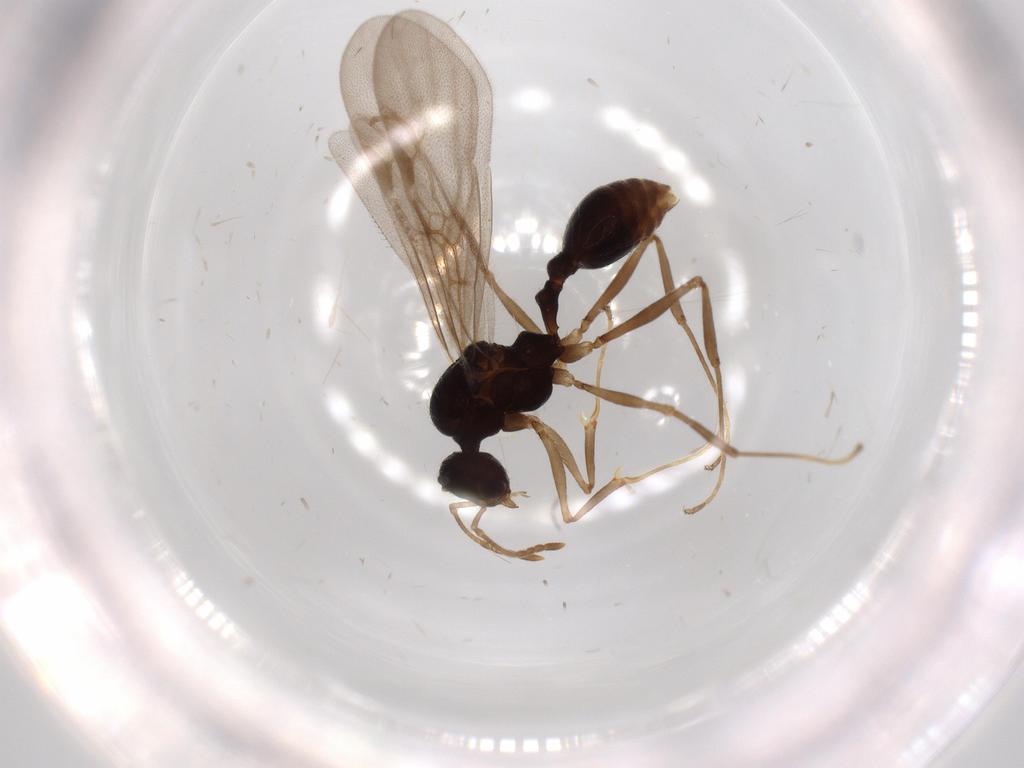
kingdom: Animalia
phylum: Arthropoda
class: Insecta
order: Hymenoptera
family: Formicidae
